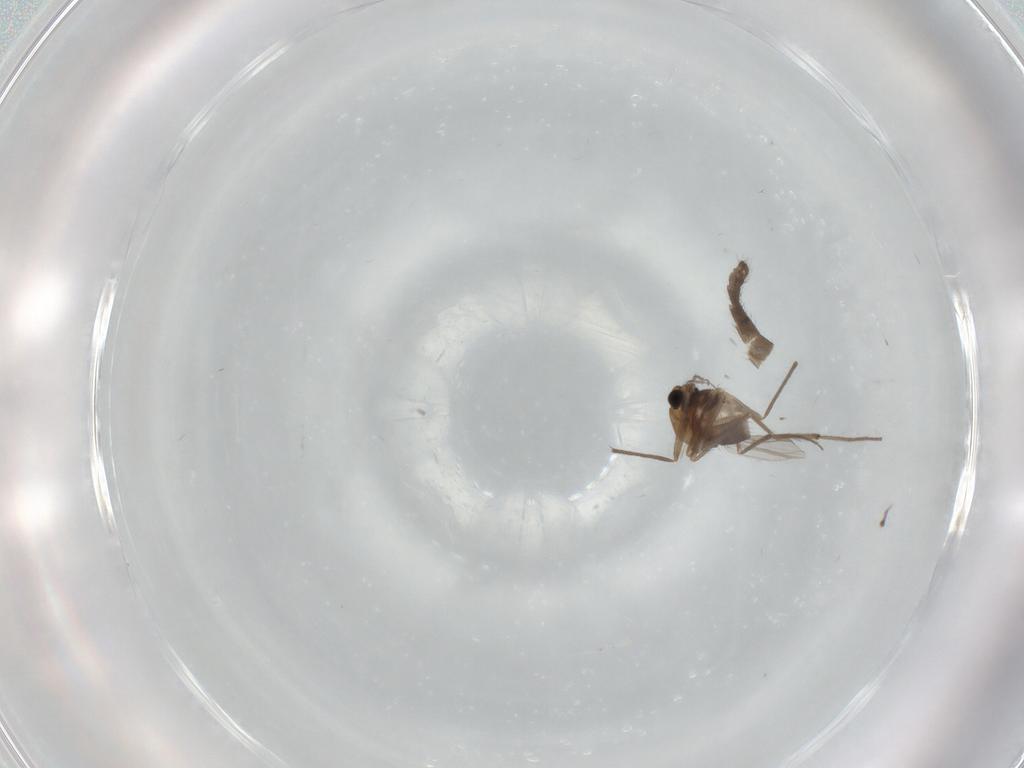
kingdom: Animalia
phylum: Arthropoda
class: Insecta
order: Diptera
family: Chironomidae
